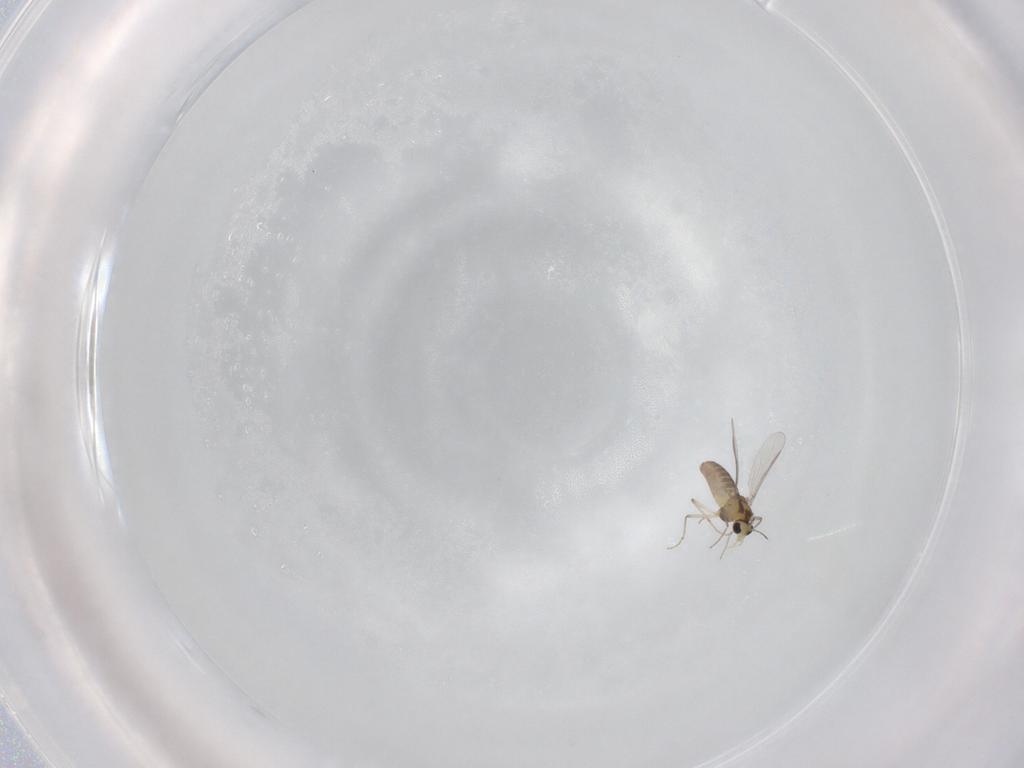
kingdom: Animalia
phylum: Arthropoda
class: Insecta
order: Diptera
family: Chironomidae
